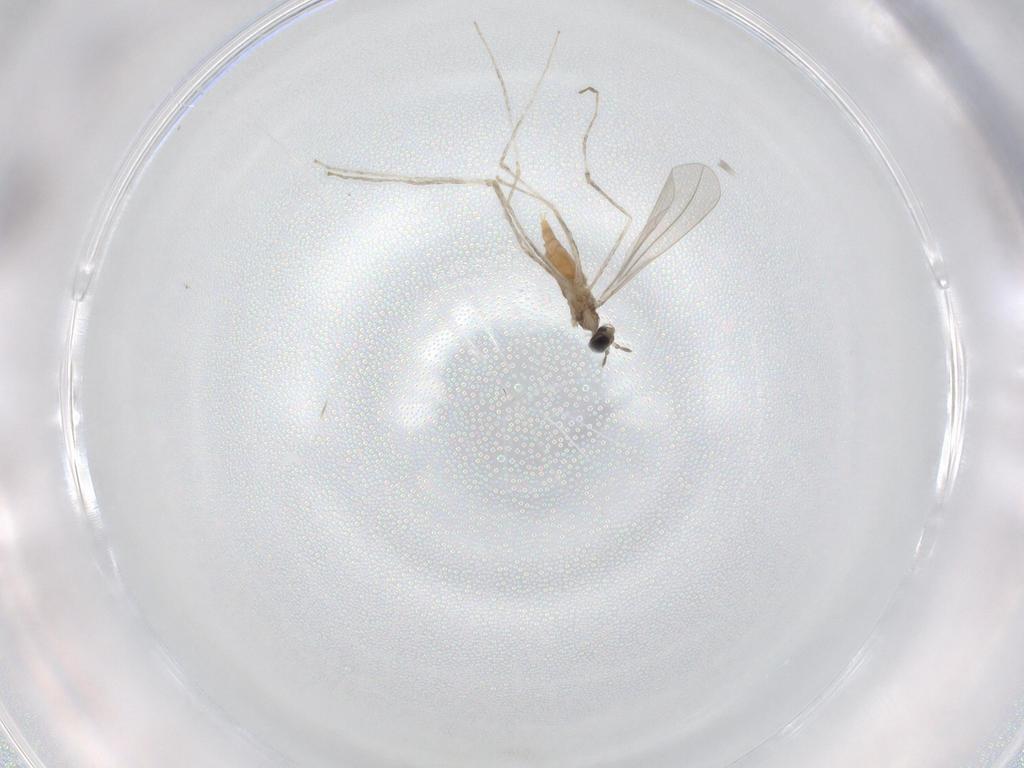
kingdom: Animalia
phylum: Arthropoda
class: Insecta
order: Diptera
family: Cecidomyiidae
